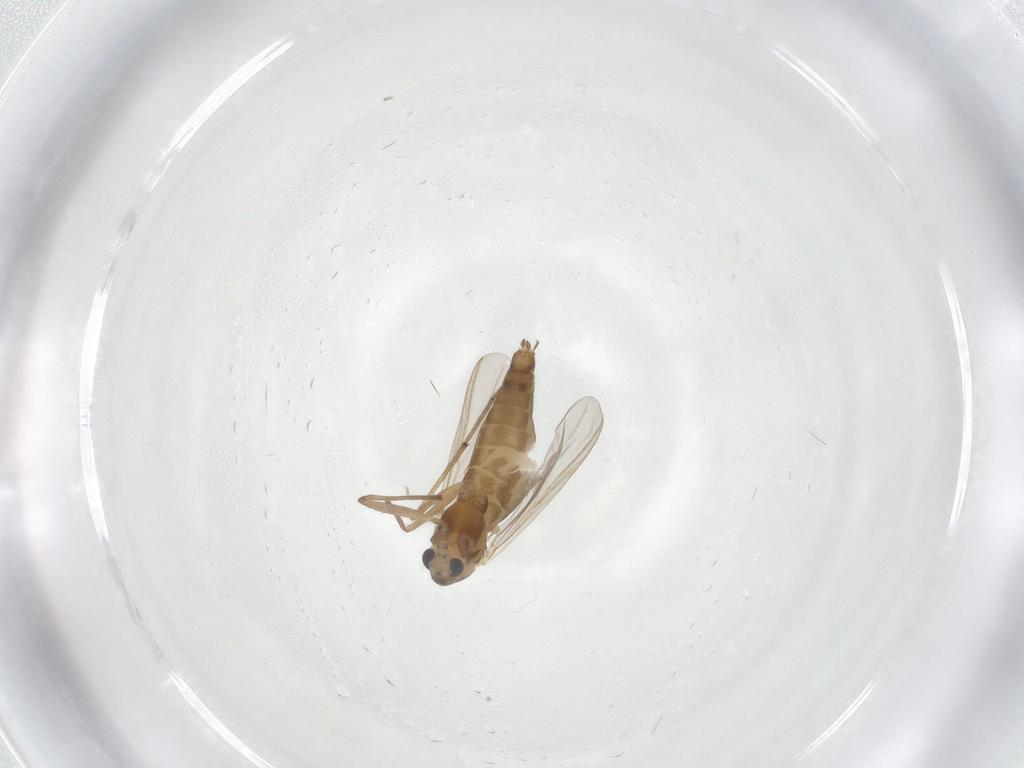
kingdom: Animalia
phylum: Arthropoda
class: Insecta
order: Diptera
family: Chironomidae
